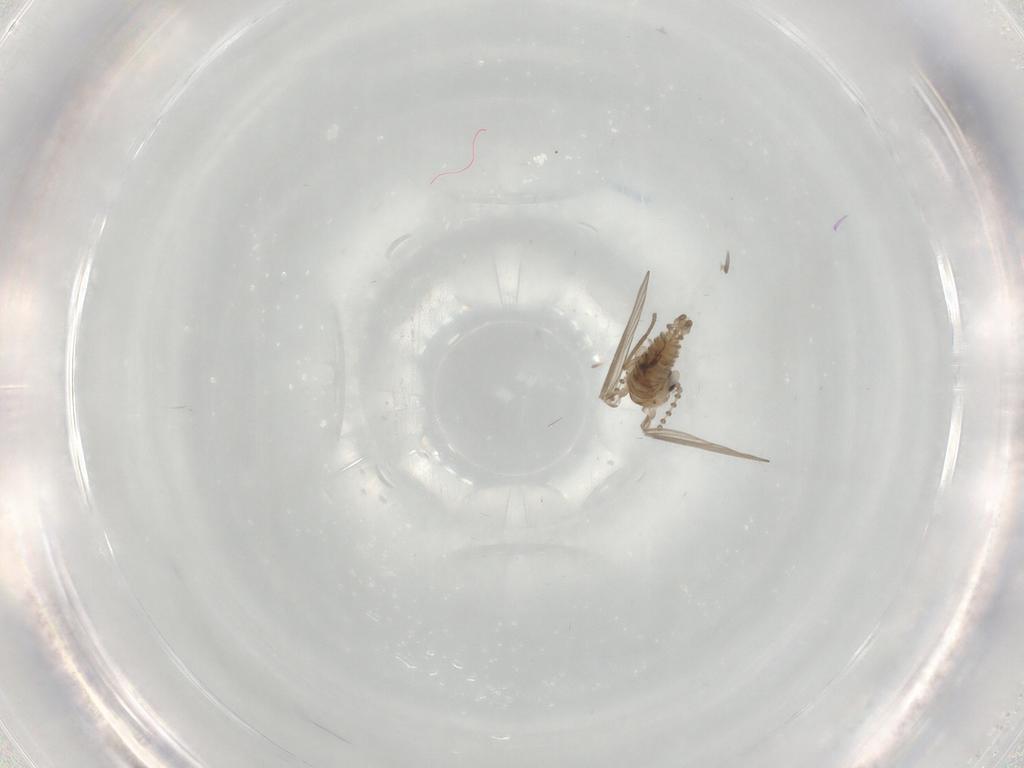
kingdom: Animalia
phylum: Arthropoda
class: Insecta
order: Diptera
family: Psychodidae
